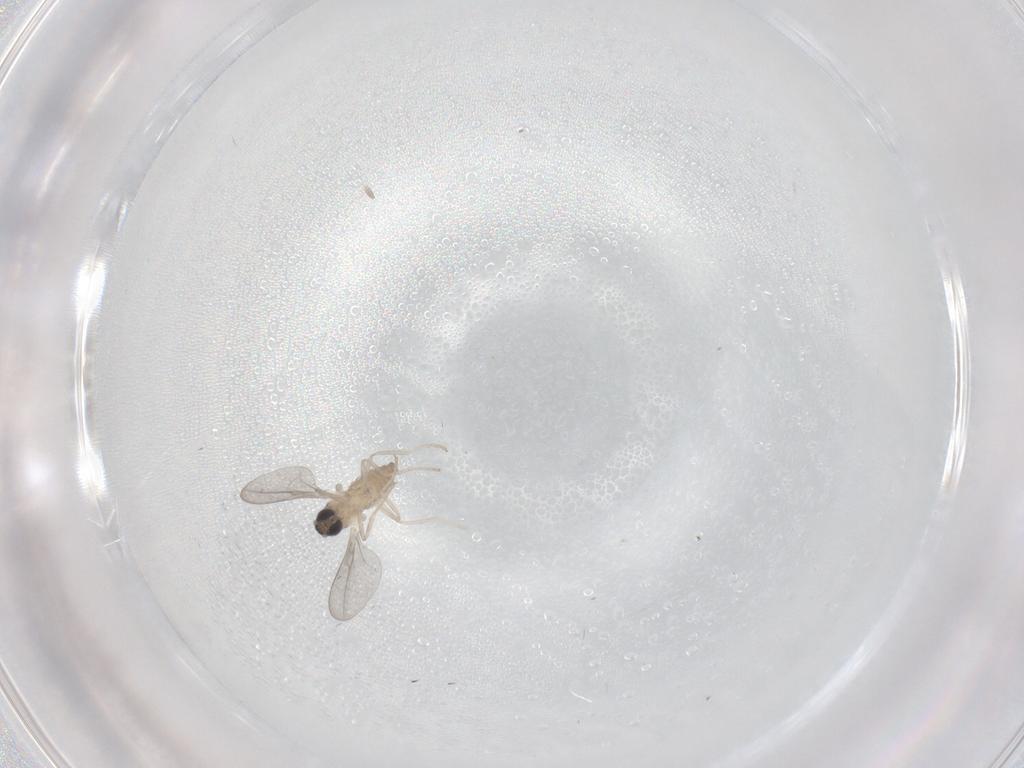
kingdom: Animalia
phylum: Arthropoda
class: Insecta
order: Diptera
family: Cecidomyiidae
